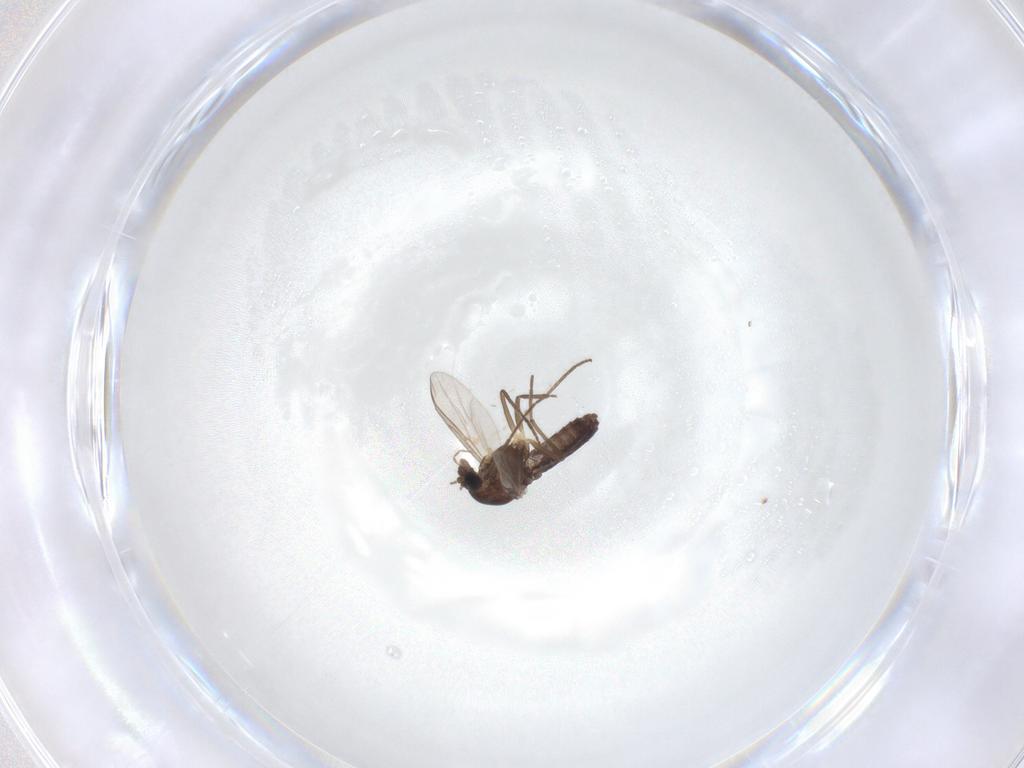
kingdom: Animalia
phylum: Arthropoda
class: Insecta
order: Diptera
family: Chironomidae
